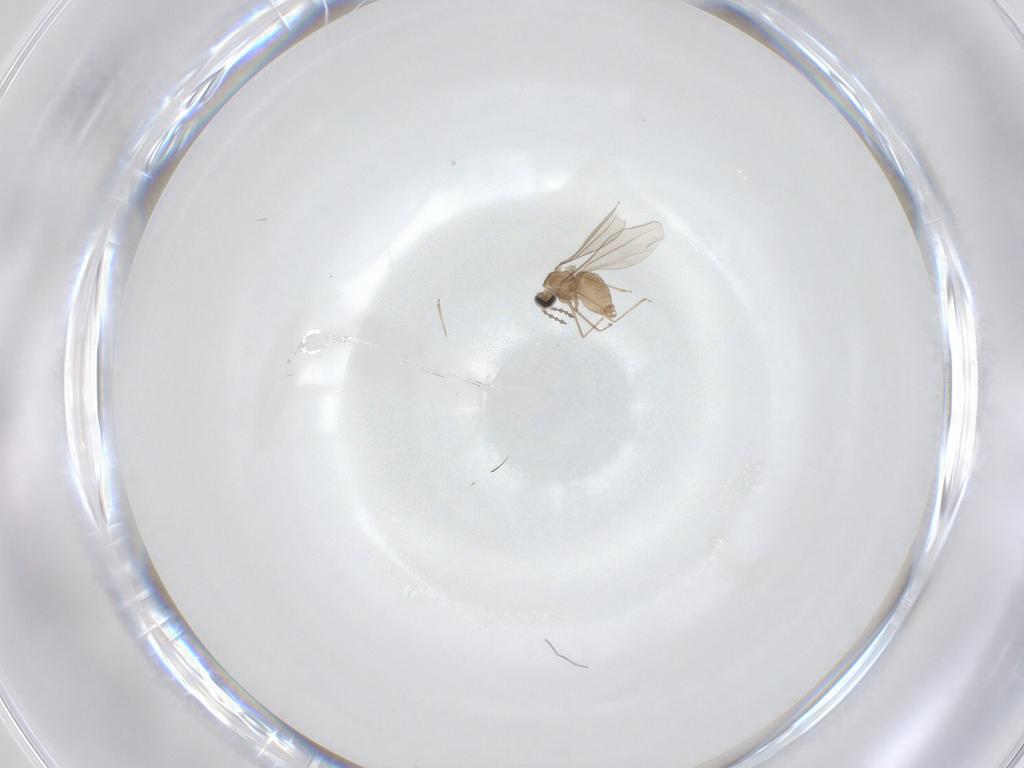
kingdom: Animalia
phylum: Arthropoda
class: Insecta
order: Diptera
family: Cecidomyiidae
